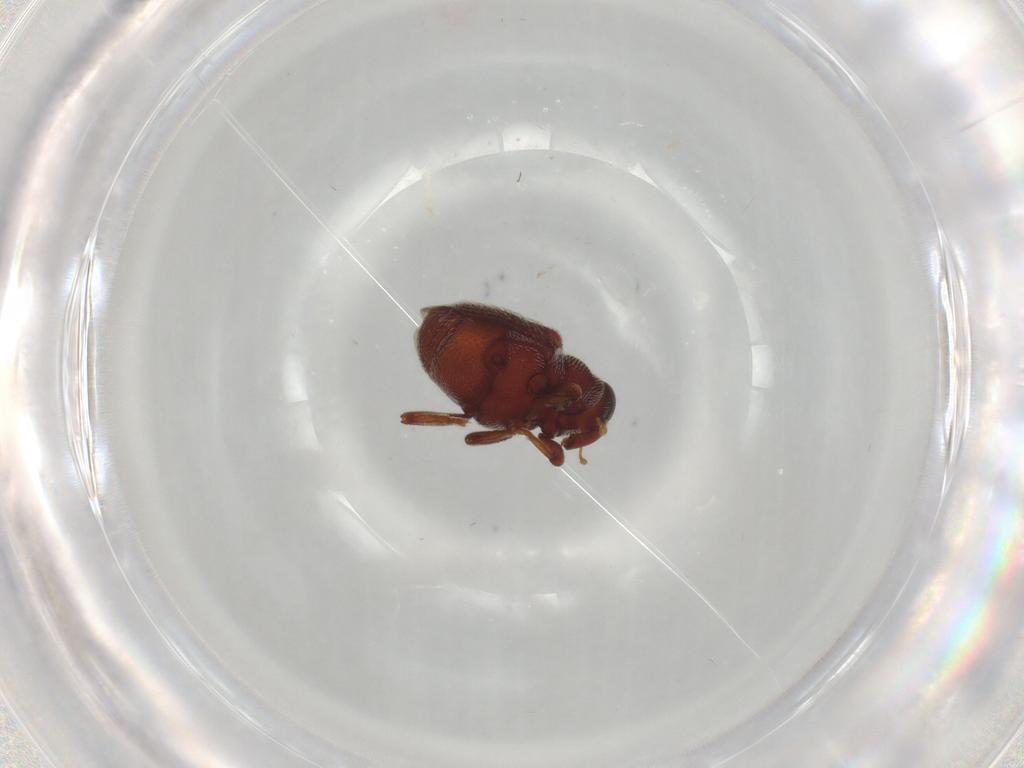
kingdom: Animalia
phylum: Arthropoda
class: Insecta
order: Coleoptera
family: Curculionidae
